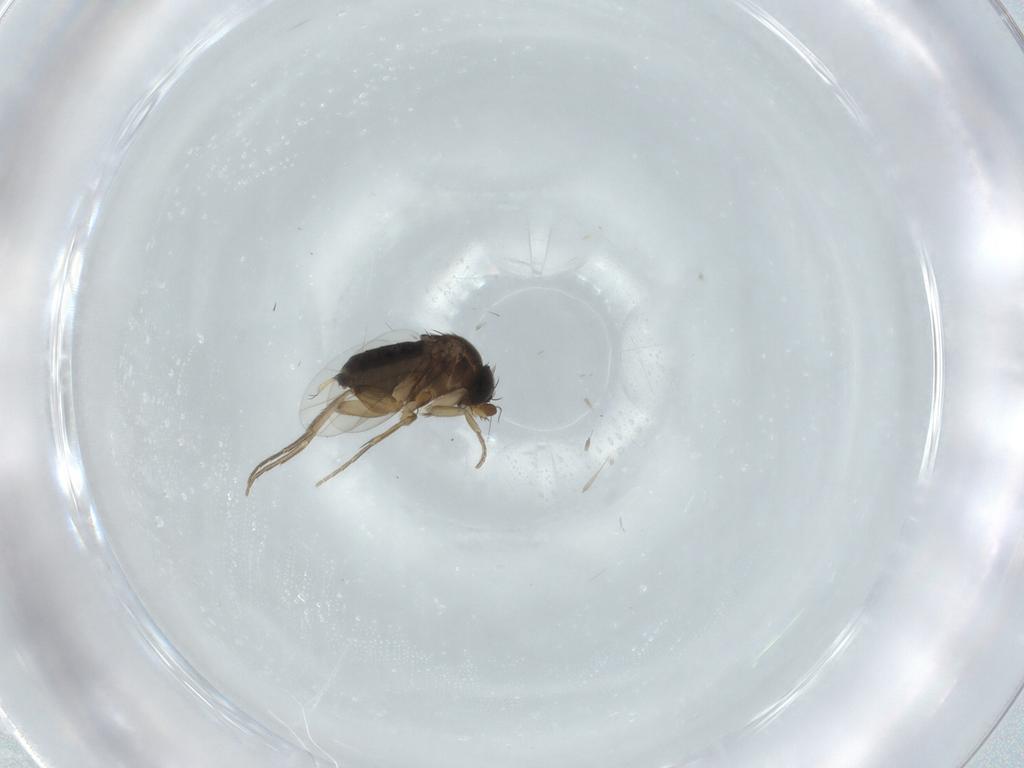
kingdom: Animalia
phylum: Arthropoda
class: Insecta
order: Diptera
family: Phoridae
